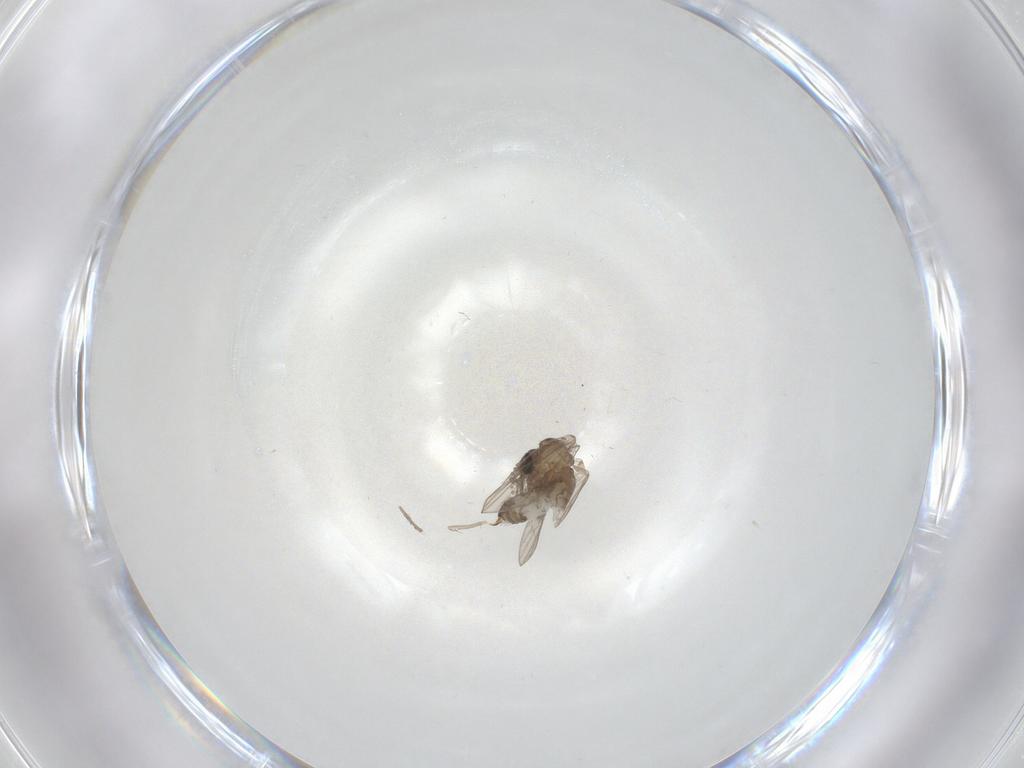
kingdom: Animalia
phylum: Arthropoda
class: Insecta
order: Diptera
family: Psychodidae
